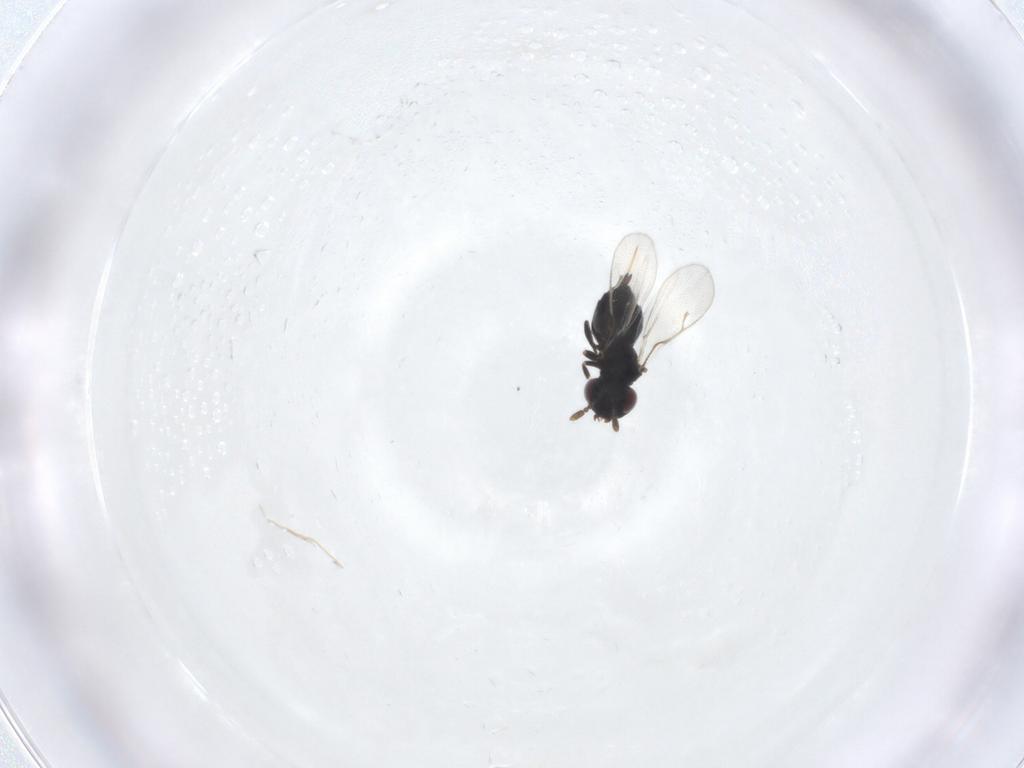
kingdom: Animalia
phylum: Arthropoda
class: Insecta
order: Hymenoptera
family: Pteromalidae
